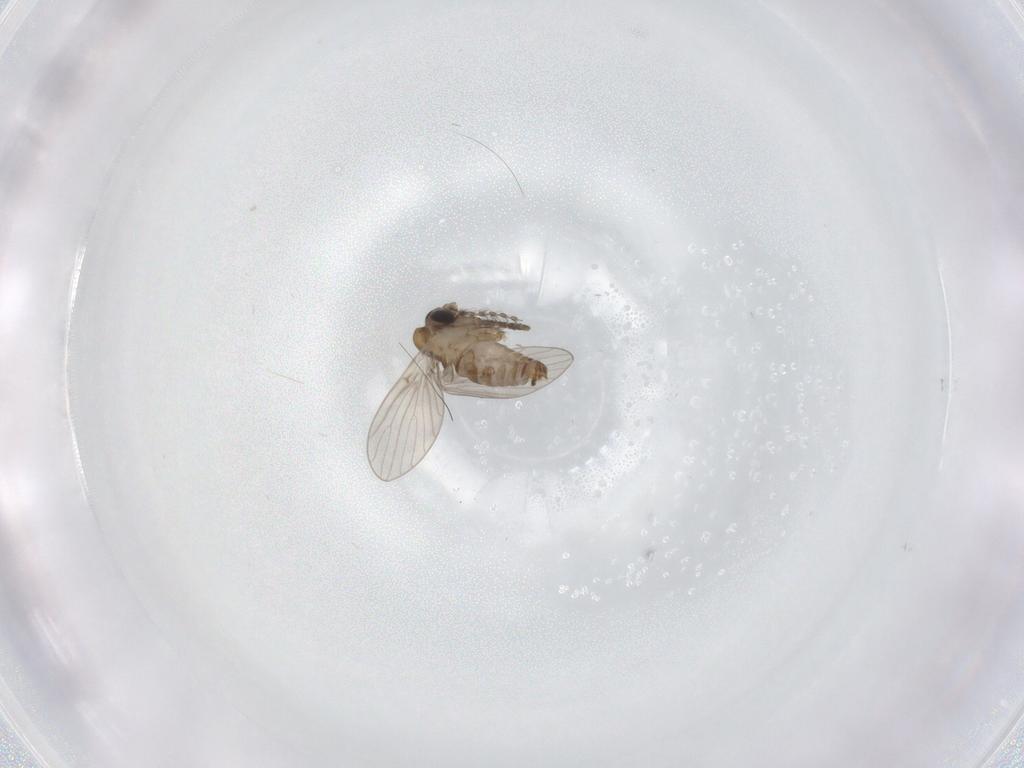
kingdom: Animalia
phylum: Arthropoda
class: Insecta
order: Diptera
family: Psychodidae
